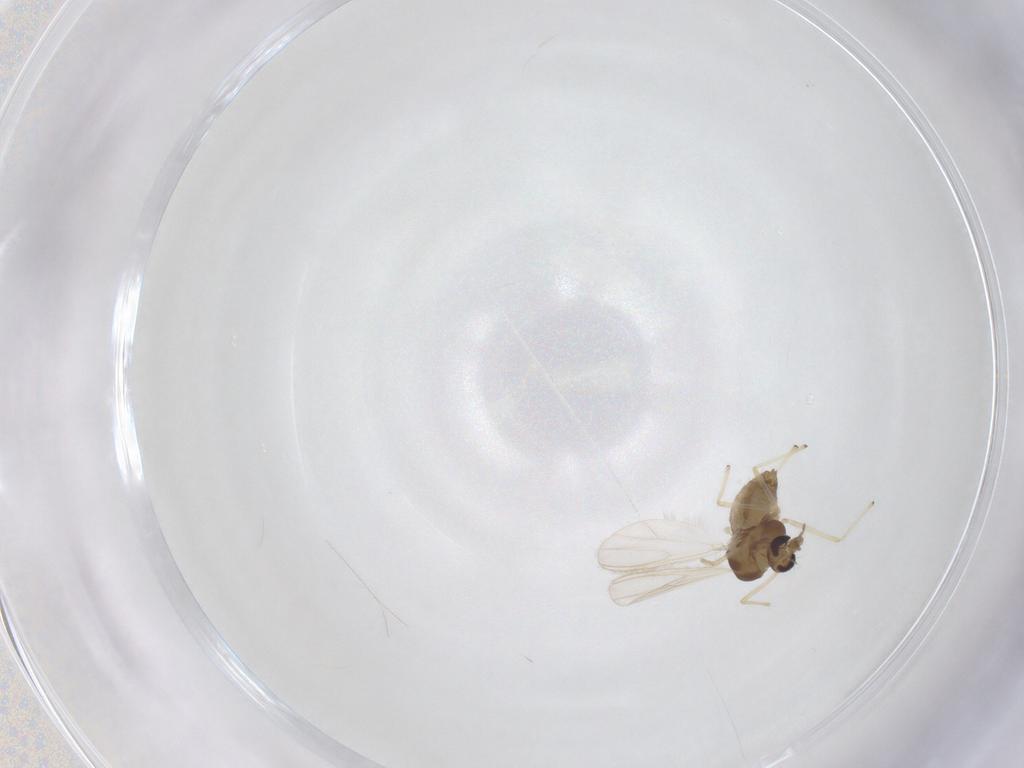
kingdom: Animalia
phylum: Arthropoda
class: Insecta
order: Diptera
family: Chironomidae
